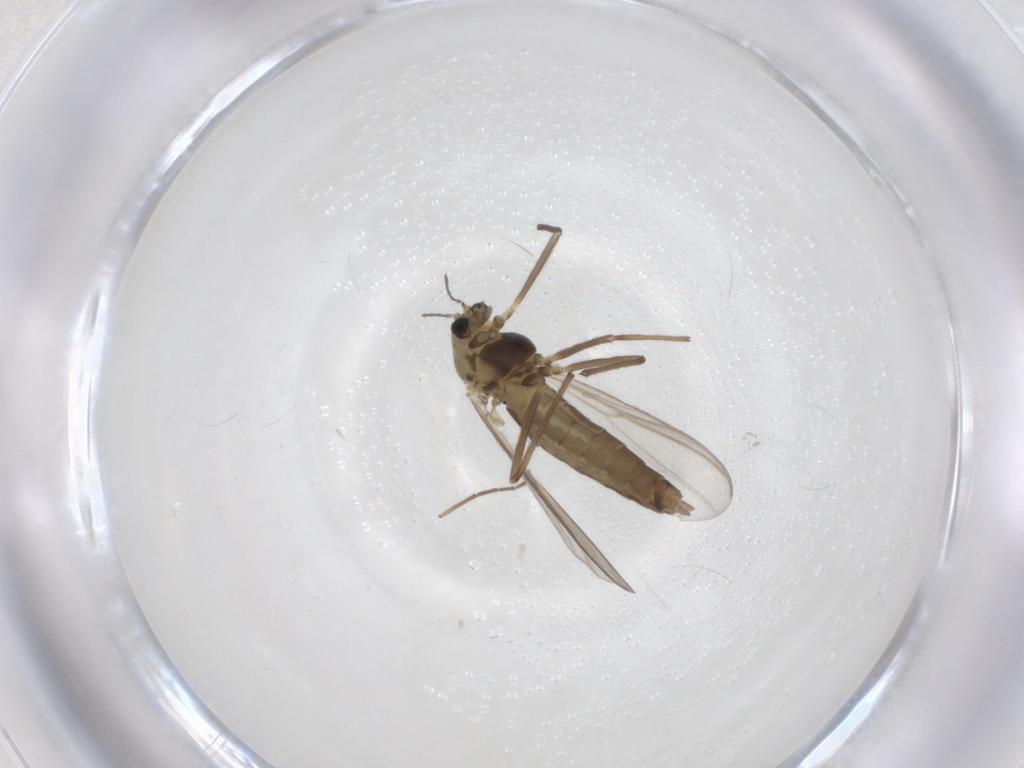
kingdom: Animalia
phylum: Arthropoda
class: Insecta
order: Diptera
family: Chironomidae
